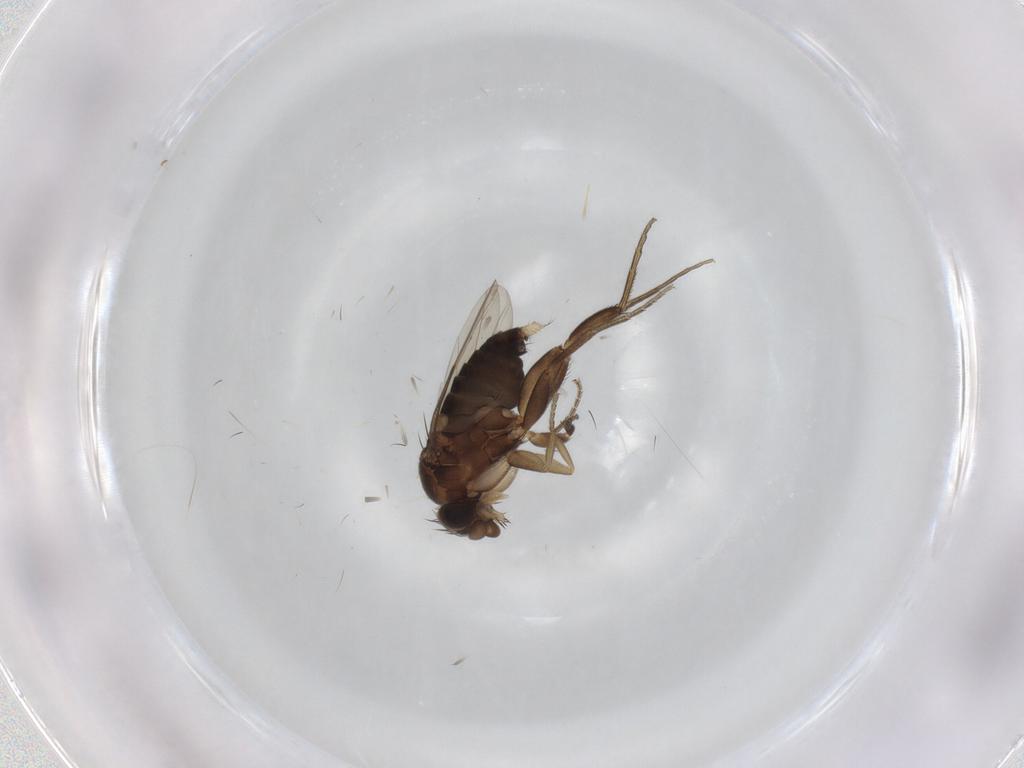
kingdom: Animalia
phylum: Arthropoda
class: Insecta
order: Diptera
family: Phoridae
